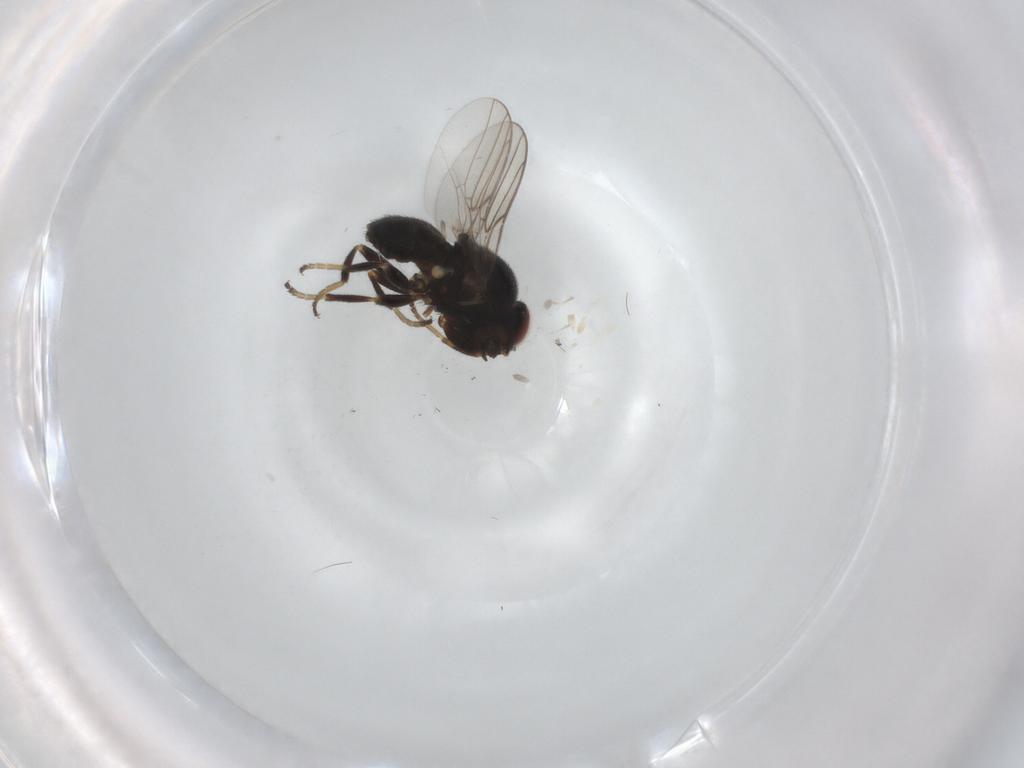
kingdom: Animalia
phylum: Arthropoda
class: Insecta
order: Diptera
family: Chloropidae
